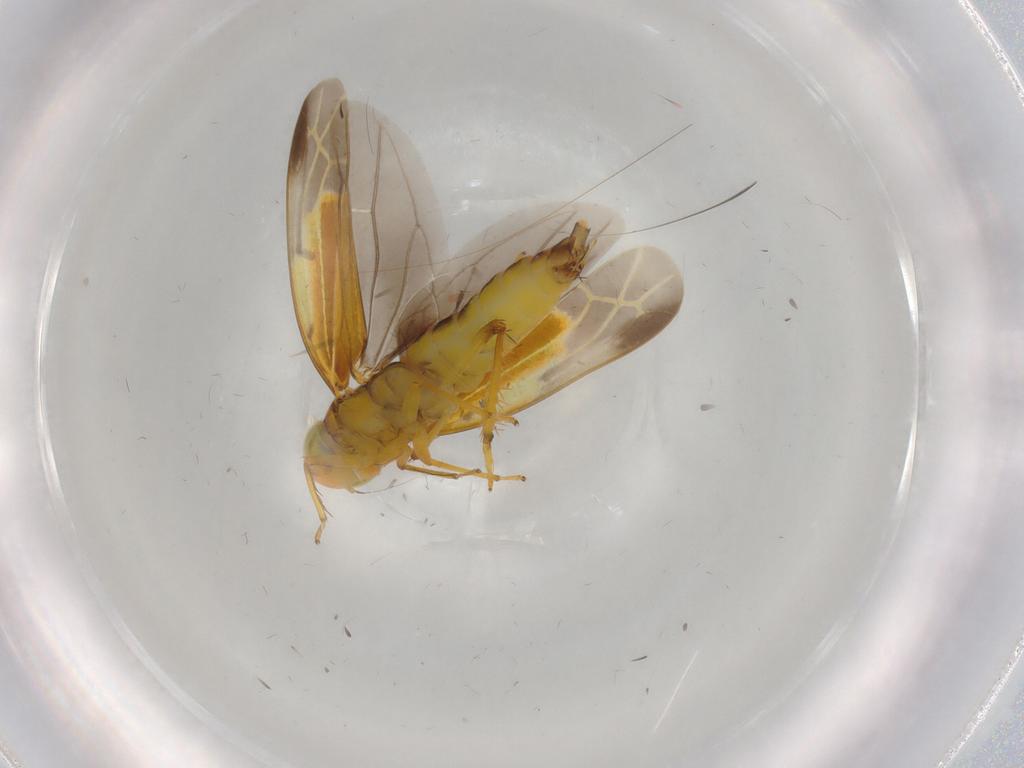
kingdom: Animalia
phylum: Arthropoda
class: Insecta
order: Hemiptera
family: Cicadellidae
